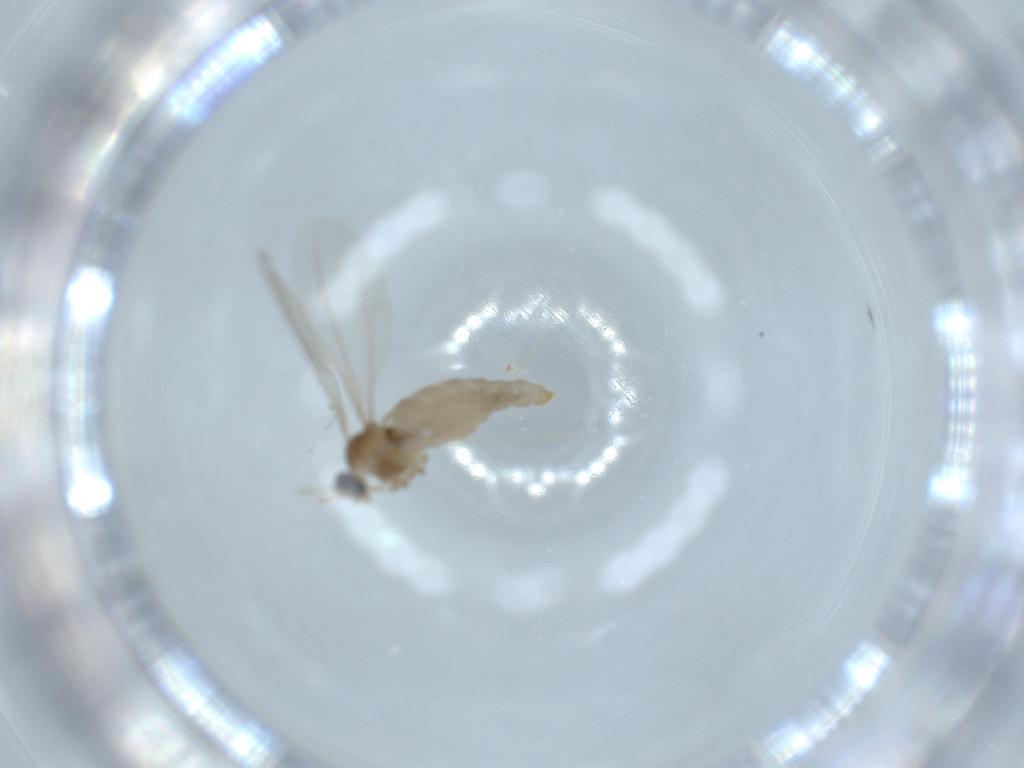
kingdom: Animalia
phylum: Arthropoda
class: Insecta
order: Diptera
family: Cecidomyiidae
